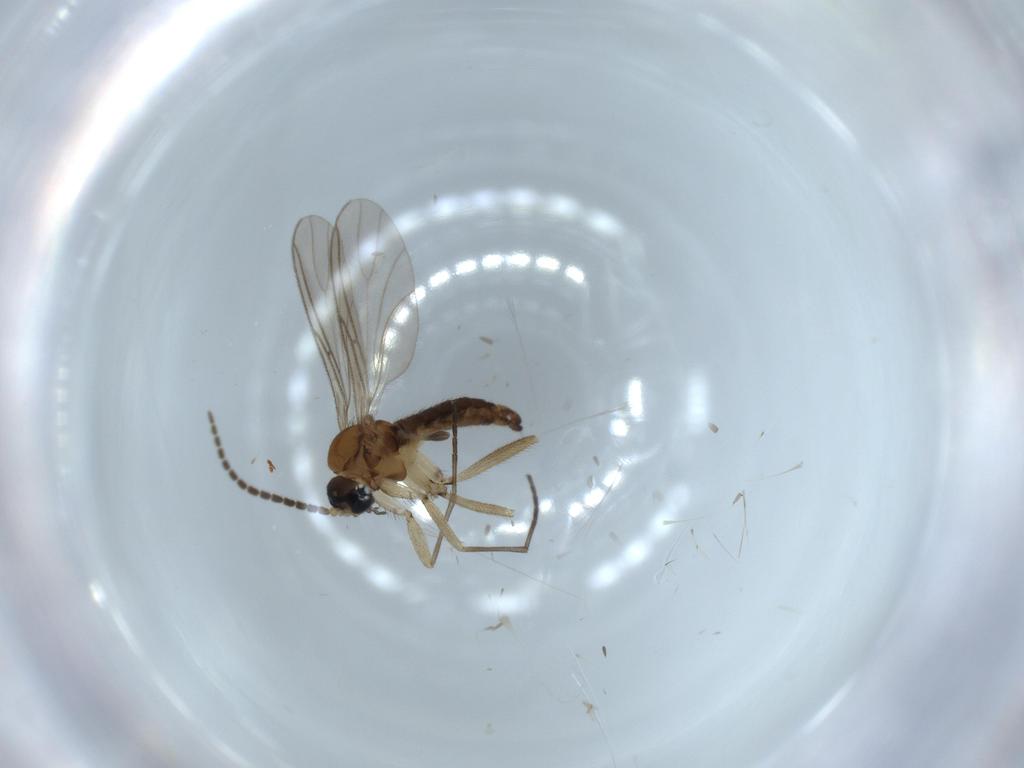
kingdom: Animalia
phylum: Arthropoda
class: Insecta
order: Diptera
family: Sciaridae
